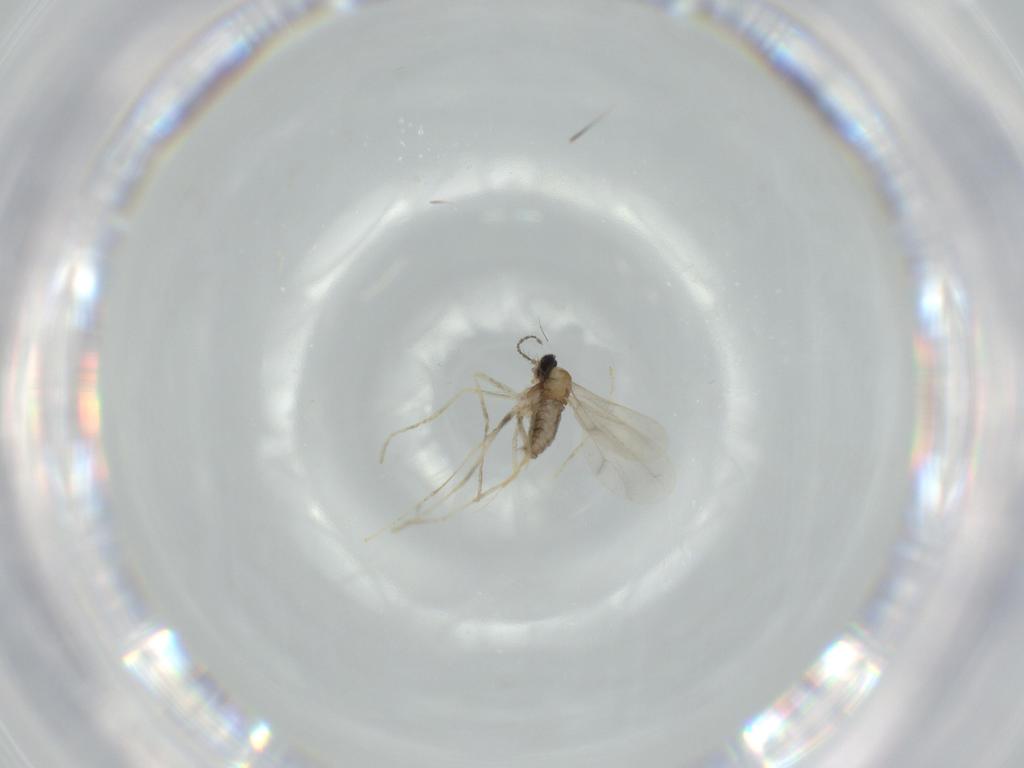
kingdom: Animalia
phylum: Arthropoda
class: Insecta
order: Diptera
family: Cecidomyiidae
